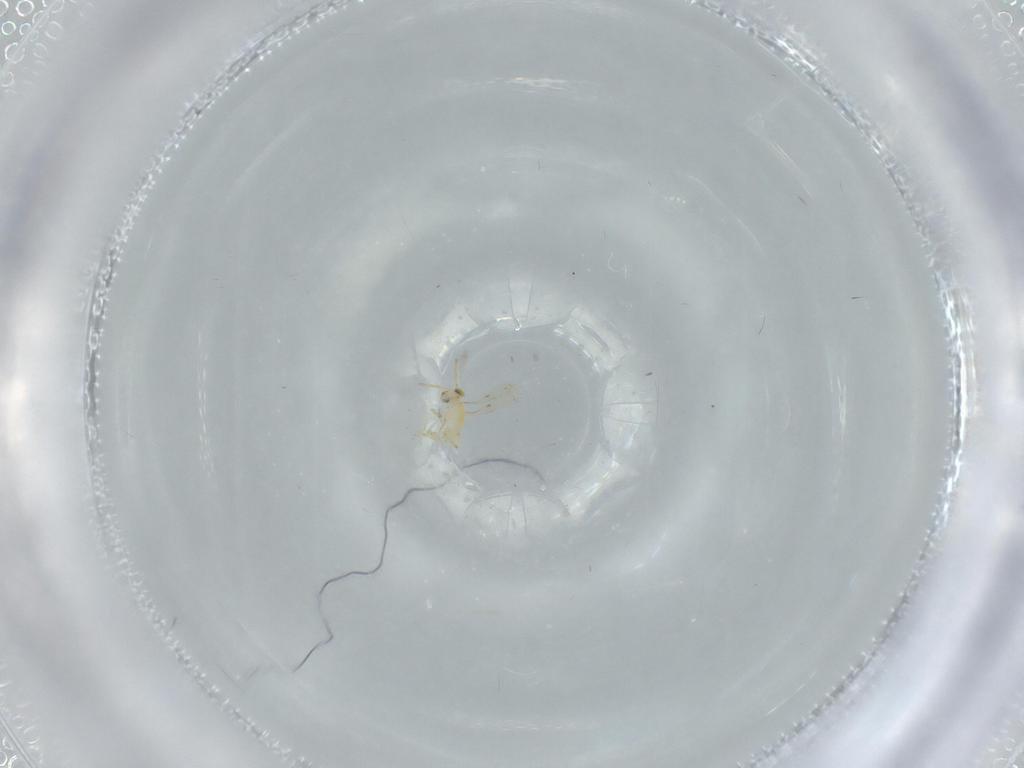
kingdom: Animalia
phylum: Arthropoda
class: Insecta
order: Hymenoptera
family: Aphelinidae
